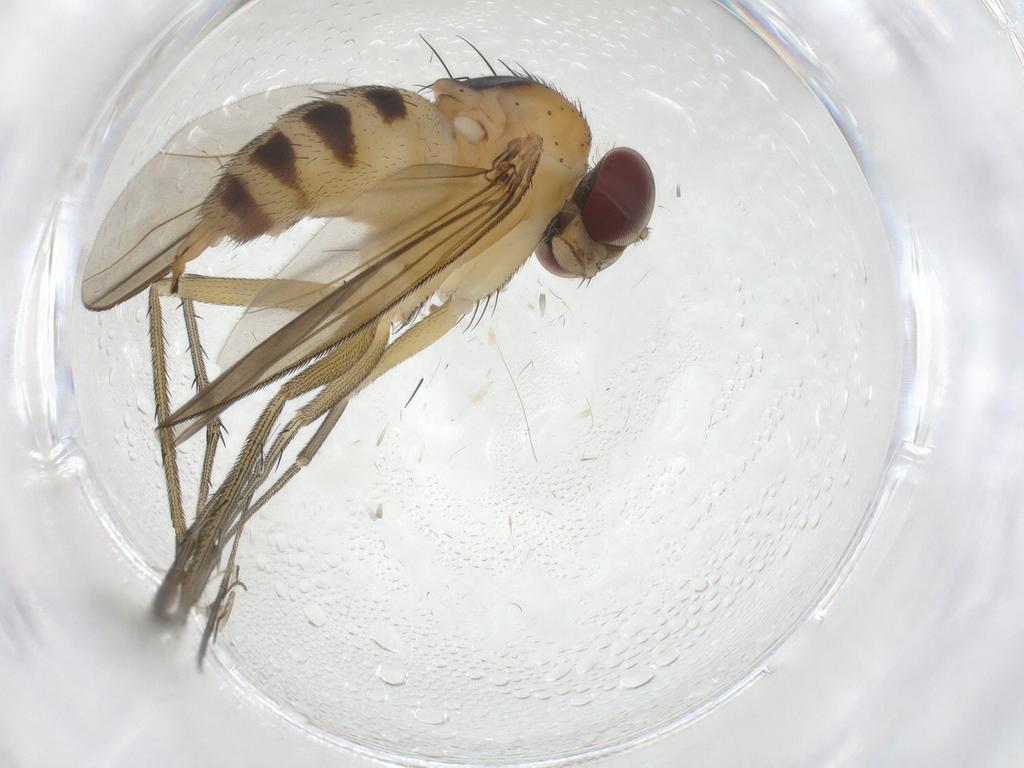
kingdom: Animalia
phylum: Arthropoda
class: Insecta
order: Diptera
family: Dolichopodidae
